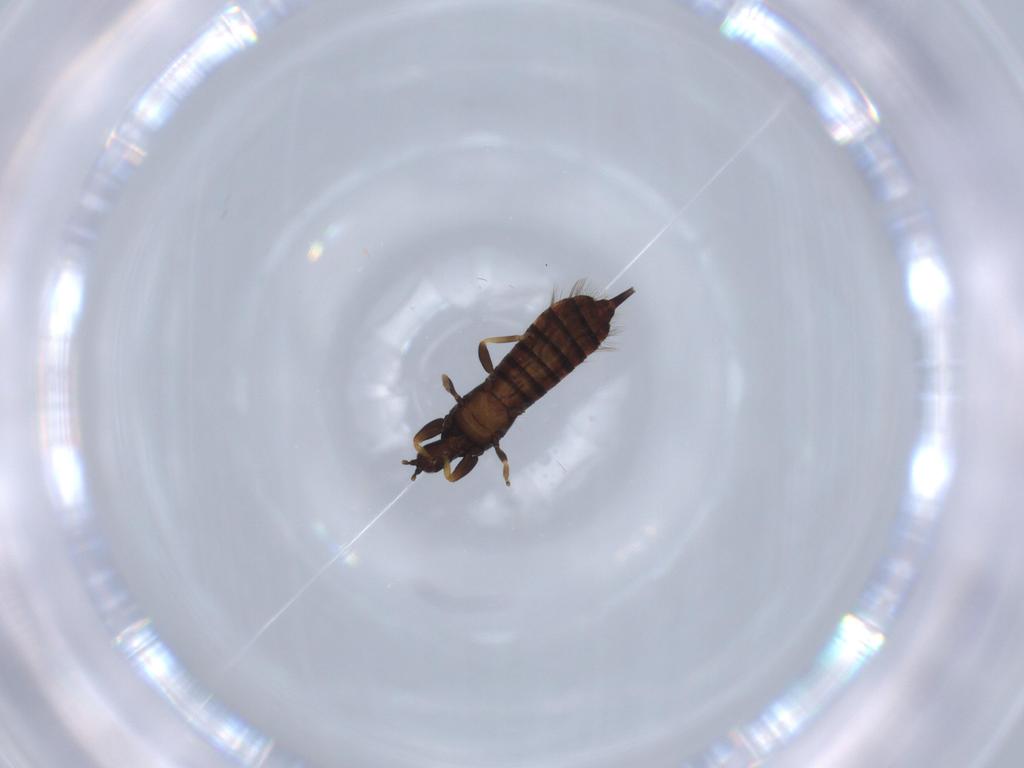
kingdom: Animalia
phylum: Arthropoda
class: Insecta
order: Thysanoptera
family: Phlaeothripidae
